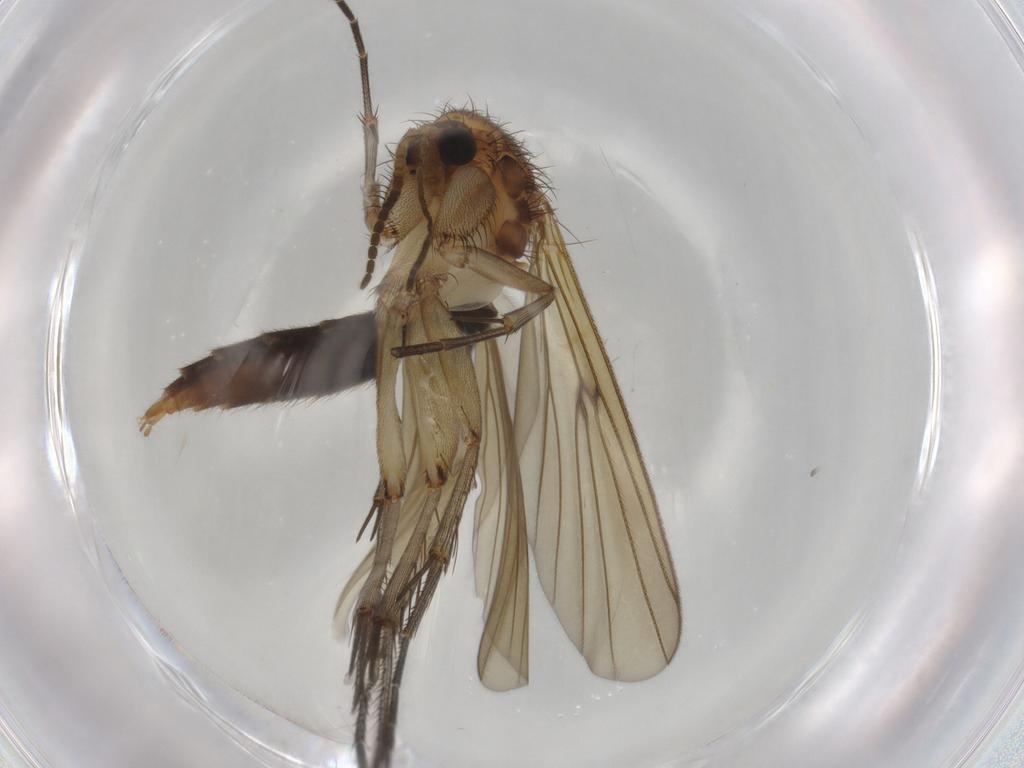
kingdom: Animalia
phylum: Arthropoda
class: Insecta
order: Diptera
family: Mycetophilidae
